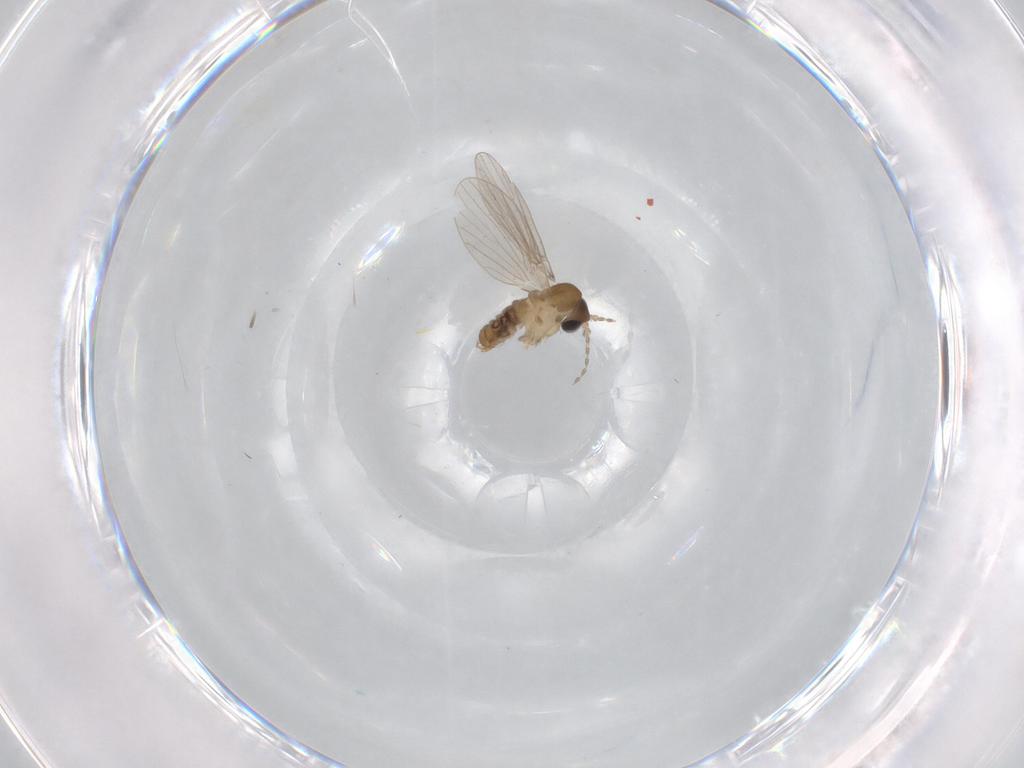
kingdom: Animalia
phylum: Arthropoda
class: Insecta
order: Diptera
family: Psychodidae
